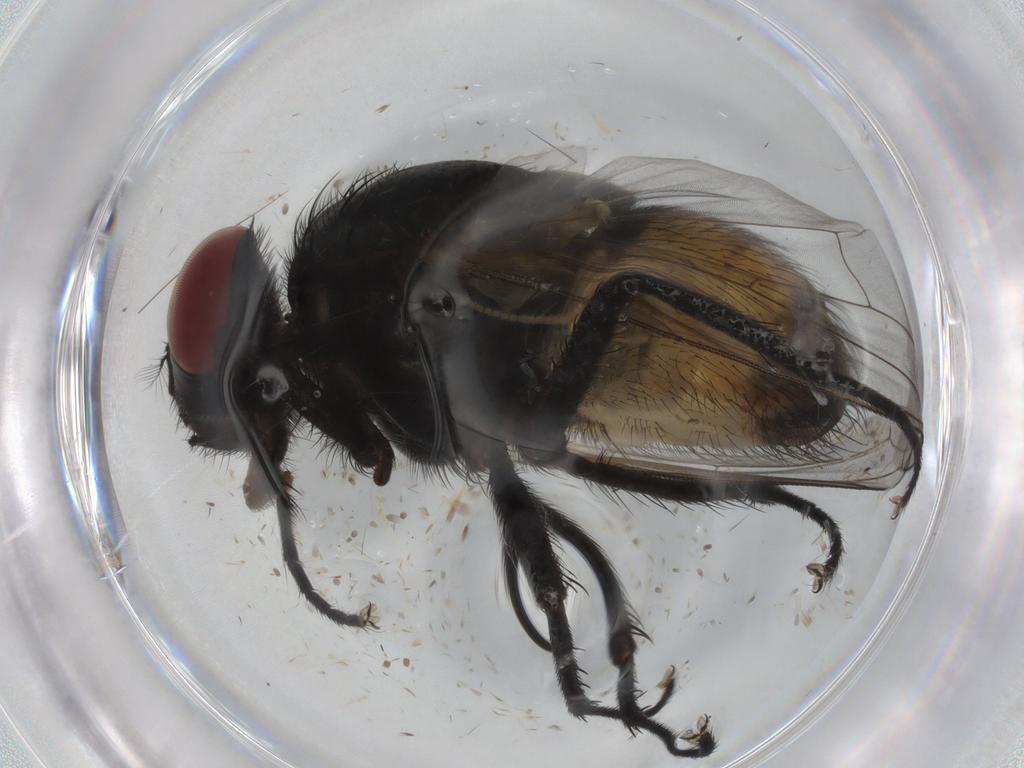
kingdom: Animalia
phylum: Arthropoda
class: Insecta
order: Diptera
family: Muscidae
